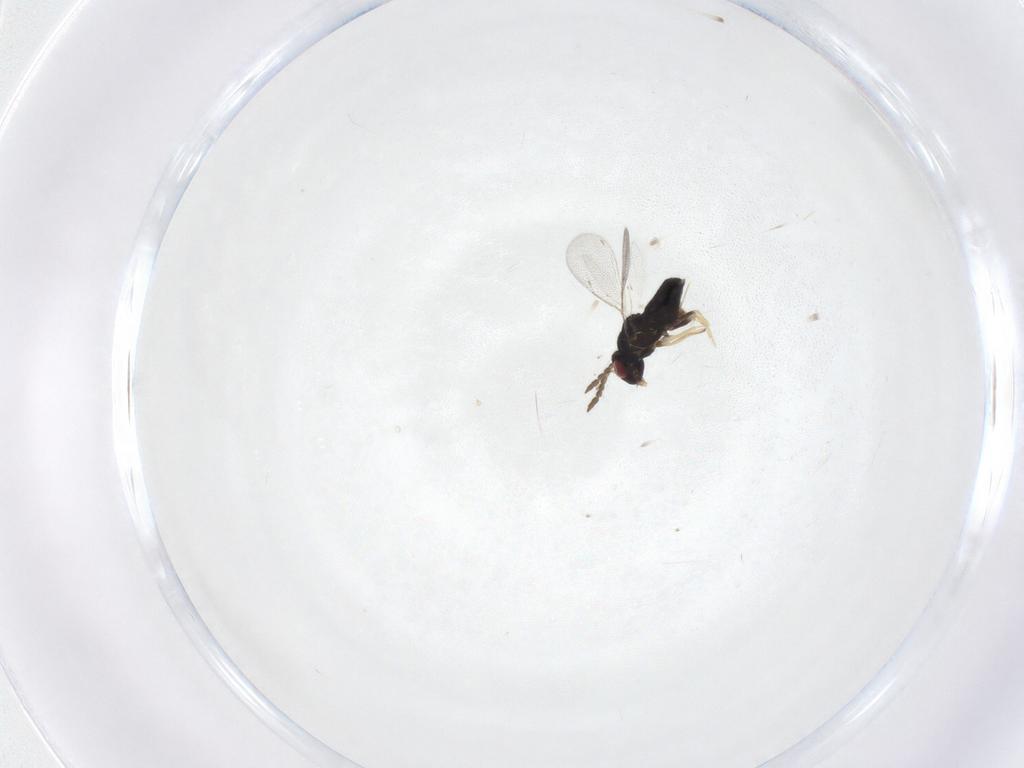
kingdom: Animalia
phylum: Arthropoda
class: Insecta
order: Hymenoptera
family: Eulophidae
